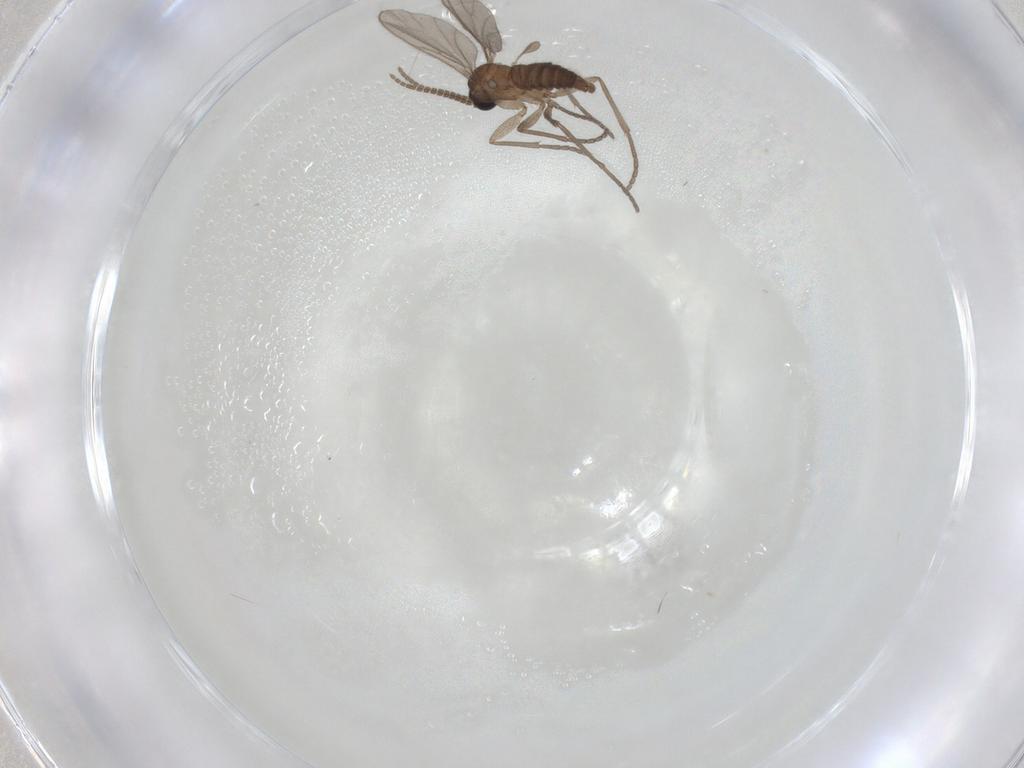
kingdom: Animalia
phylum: Arthropoda
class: Insecta
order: Diptera
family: Sciaridae
